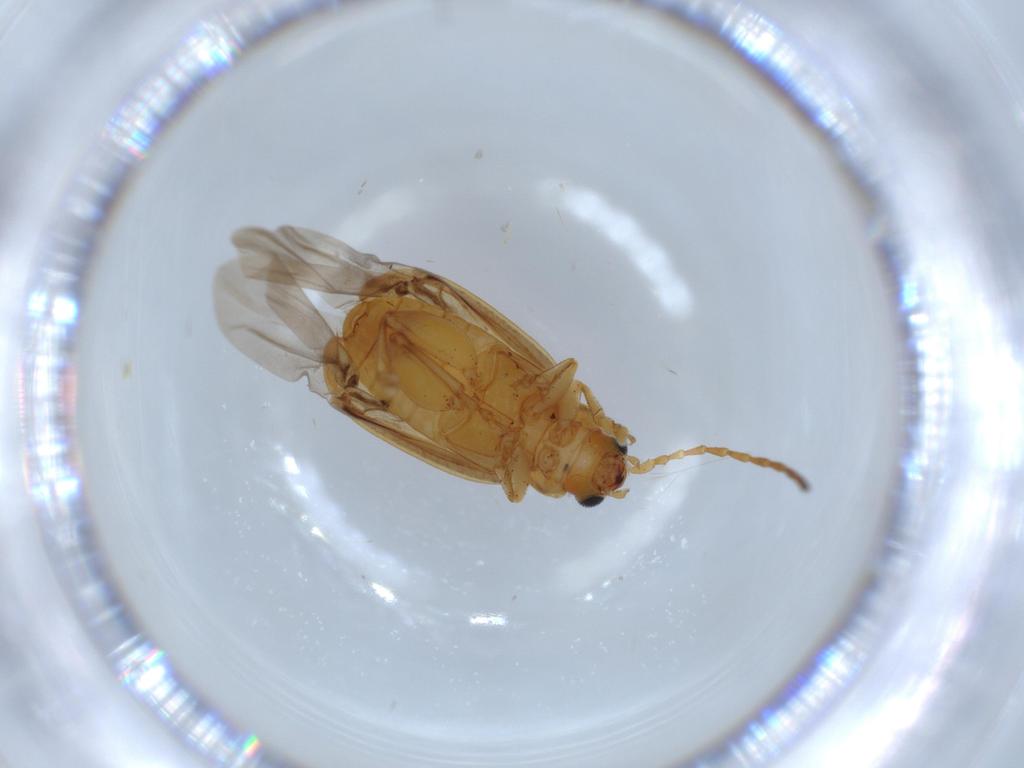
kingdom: Animalia
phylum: Arthropoda
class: Insecta
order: Coleoptera
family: Chrysomelidae
